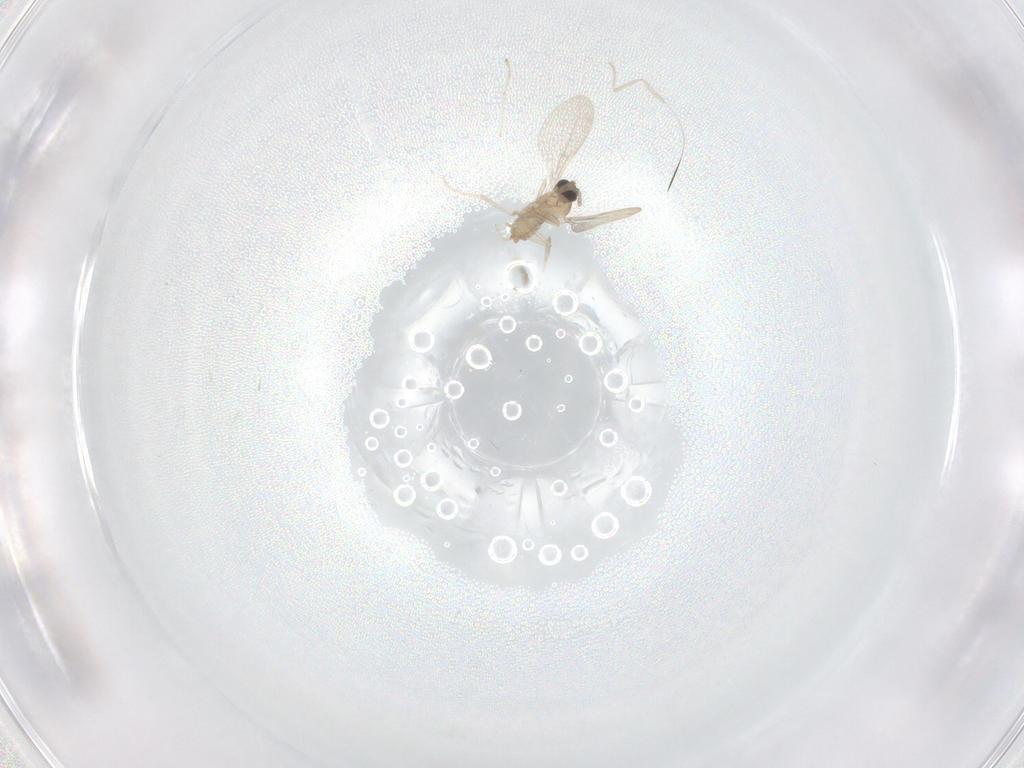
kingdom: Animalia
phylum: Arthropoda
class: Insecta
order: Diptera
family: Cecidomyiidae
